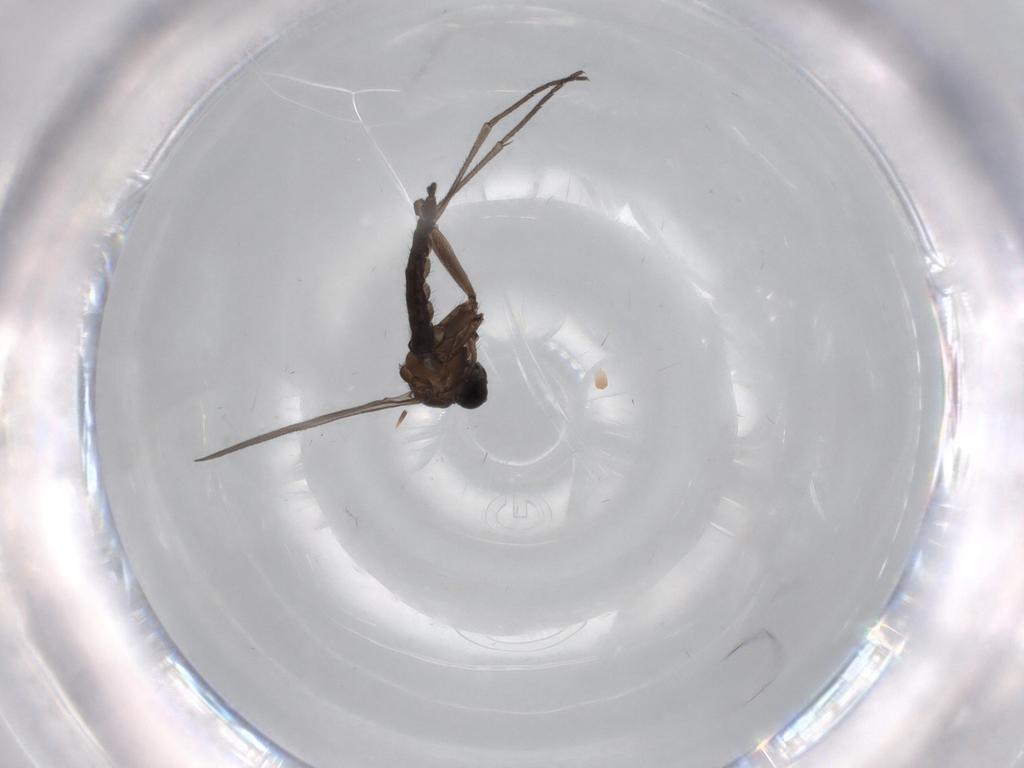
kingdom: Animalia
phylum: Arthropoda
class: Insecta
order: Diptera
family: Sciaridae
